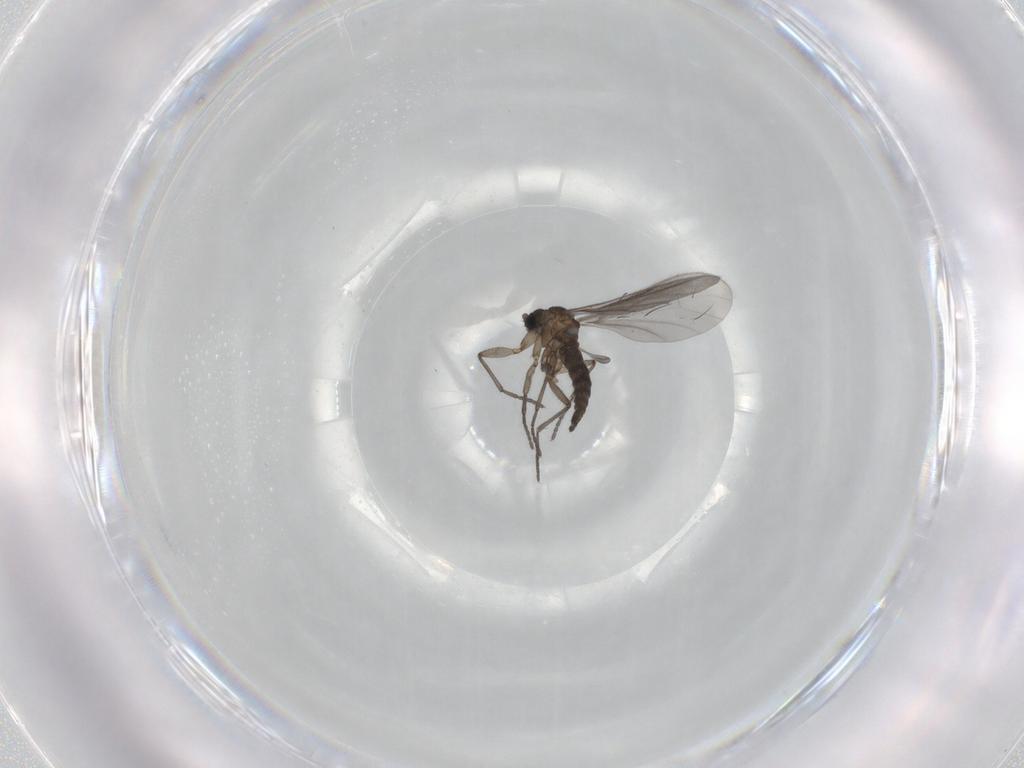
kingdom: Animalia
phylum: Arthropoda
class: Insecta
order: Diptera
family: Sciaridae
